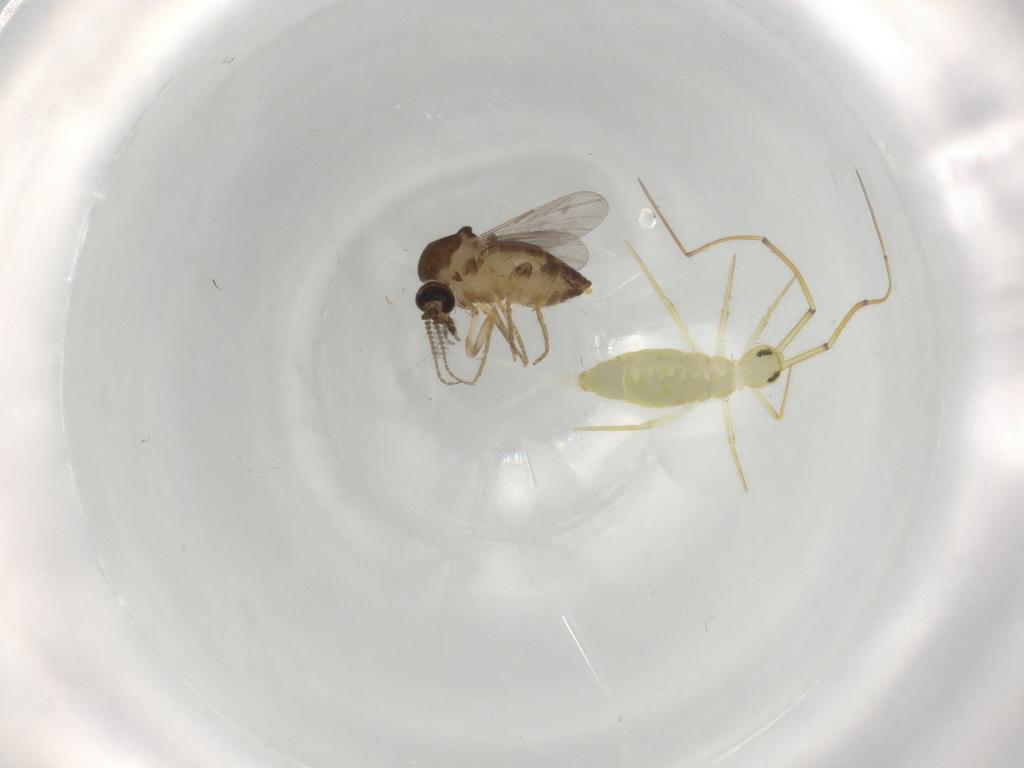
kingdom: Animalia
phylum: Arthropoda
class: Insecta
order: Diptera
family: Ceratopogonidae
